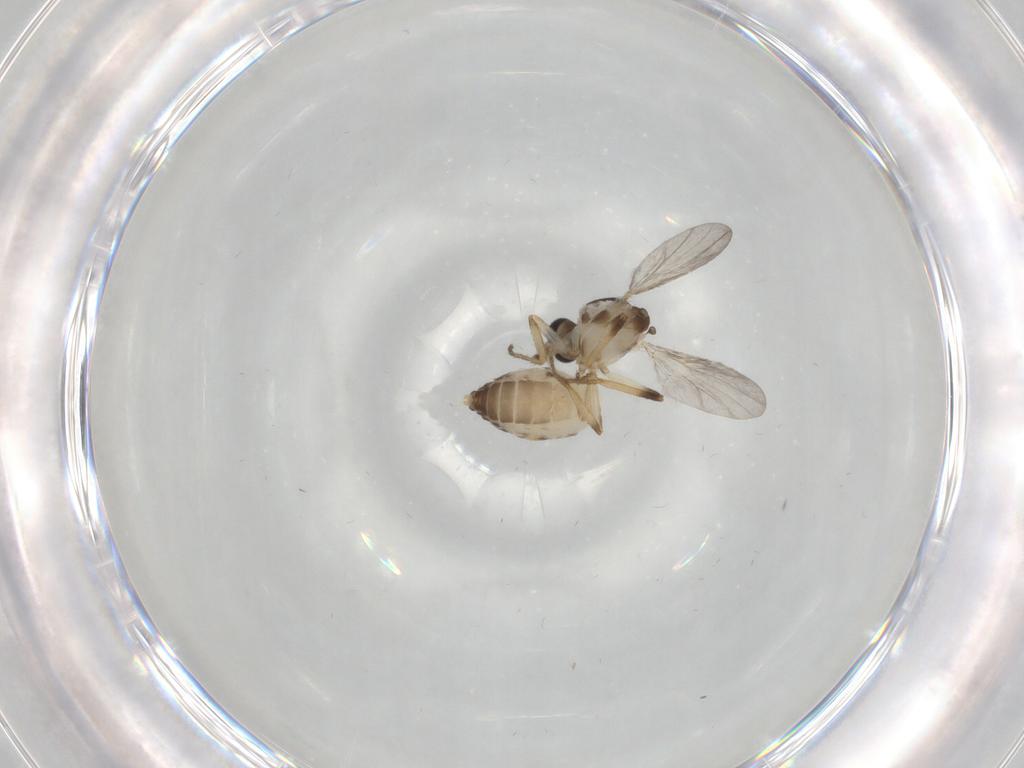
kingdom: Animalia
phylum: Arthropoda
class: Insecta
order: Diptera
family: Ceratopogonidae
